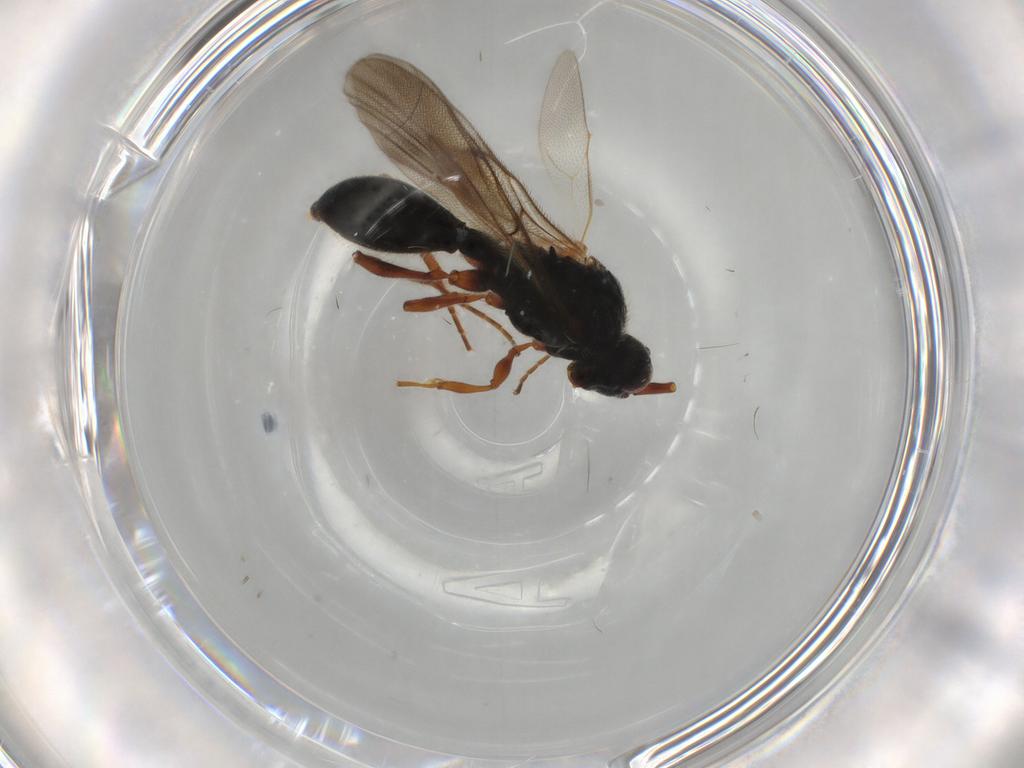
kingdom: Animalia
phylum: Arthropoda
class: Insecta
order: Hymenoptera
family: Diapriidae
